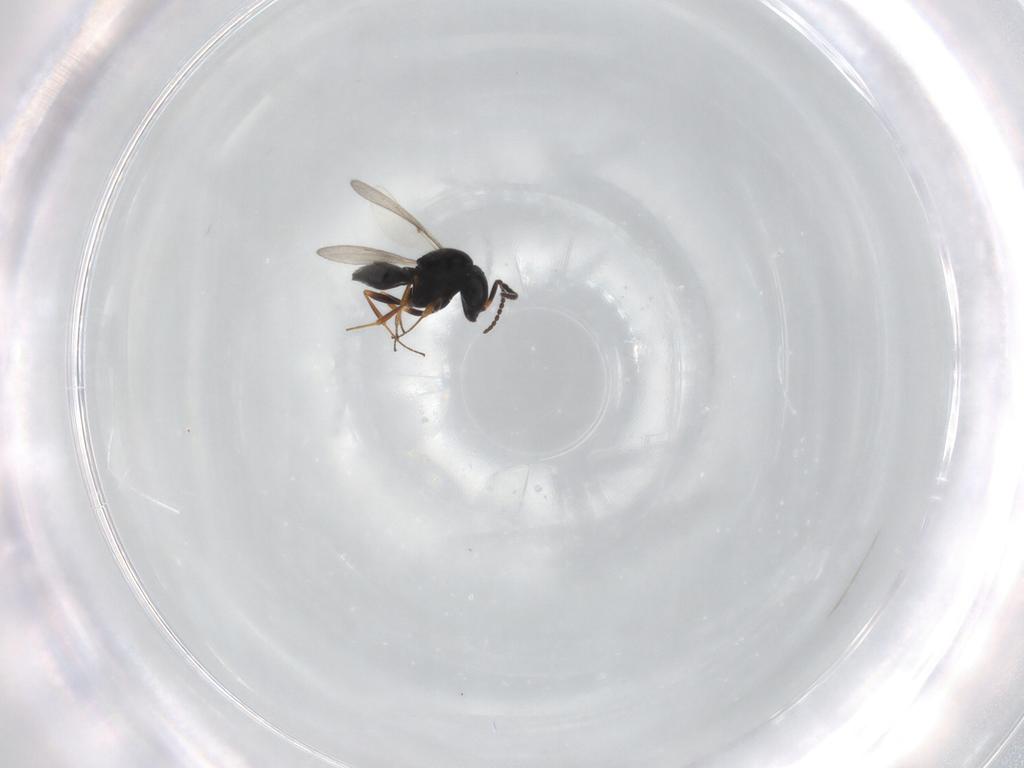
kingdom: Animalia
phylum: Arthropoda
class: Insecta
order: Hymenoptera
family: Scelionidae
